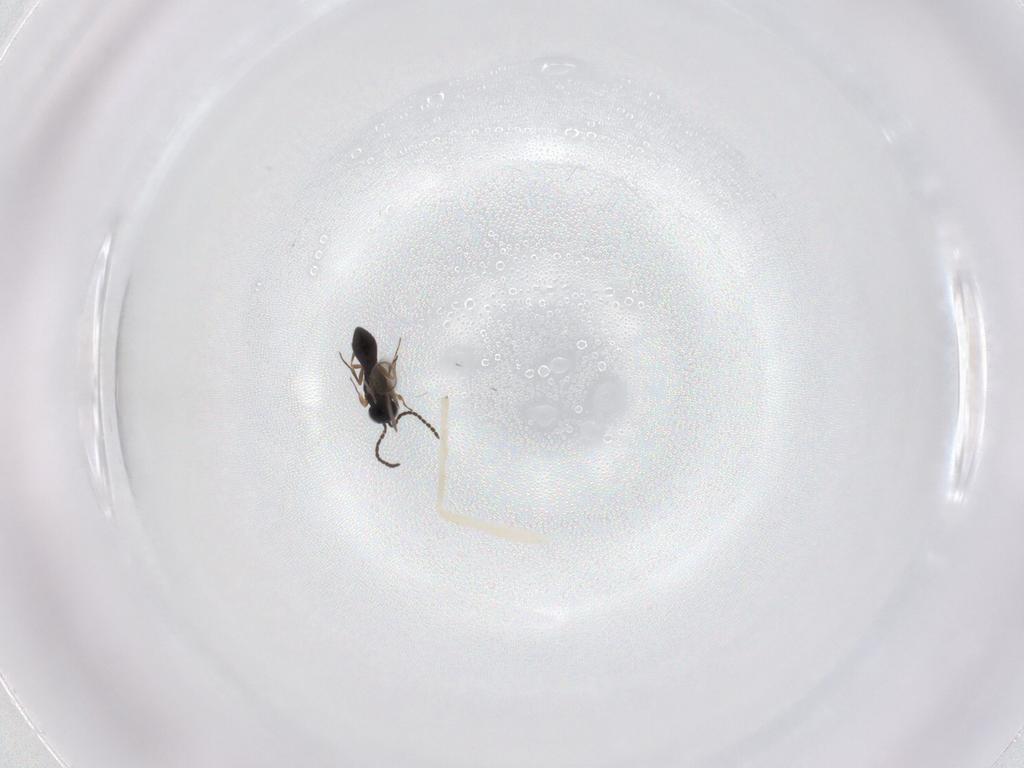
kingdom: Animalia
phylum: Arthropoda
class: Insecta
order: Hymenoptera
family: Scelionidae
